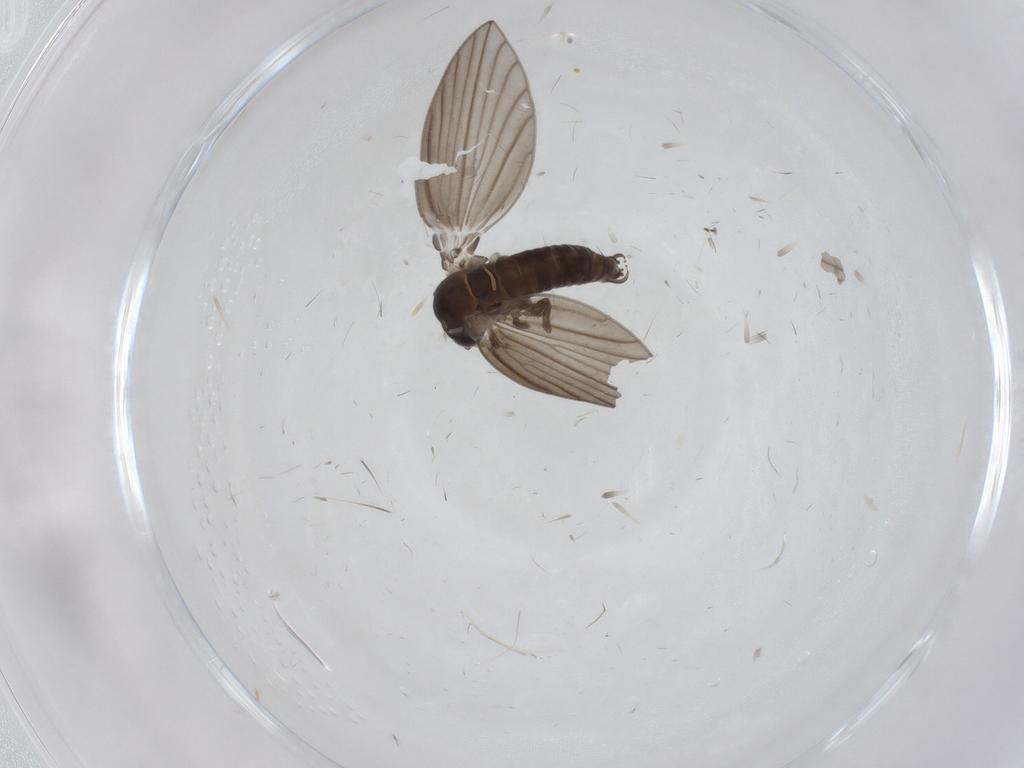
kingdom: Animalia
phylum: Arthropoda
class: Insecta
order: Diptera
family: Psychodidae
